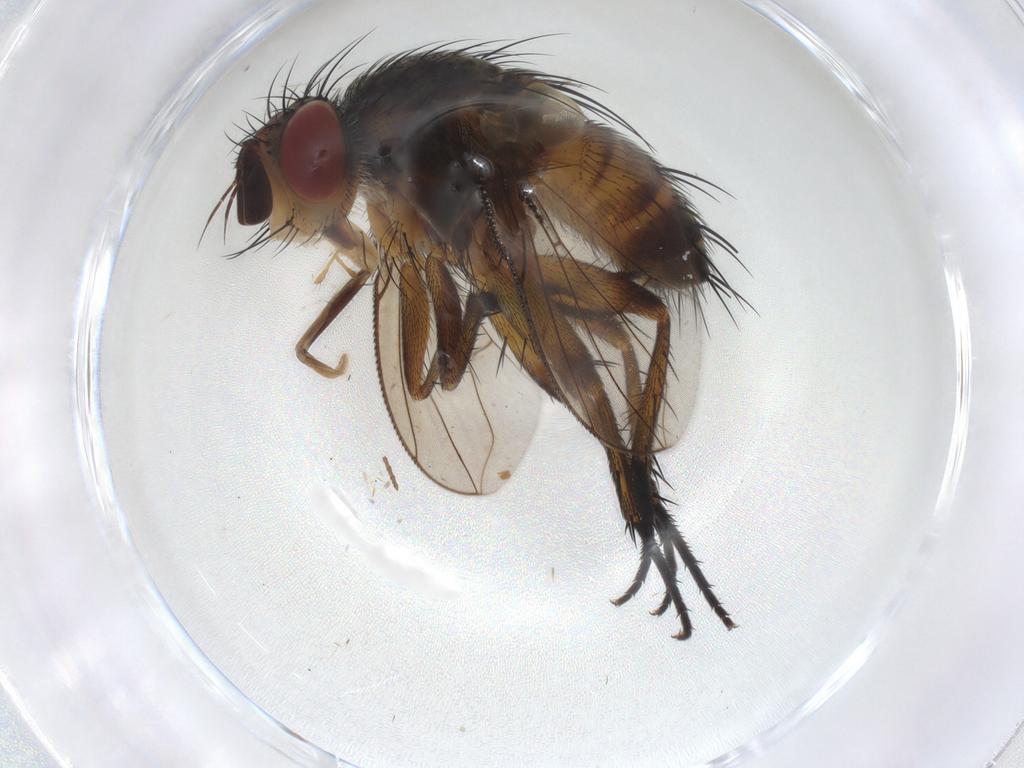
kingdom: Animalia
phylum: Arthropoda
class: Insecta
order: Diptera
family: Tachinidae
